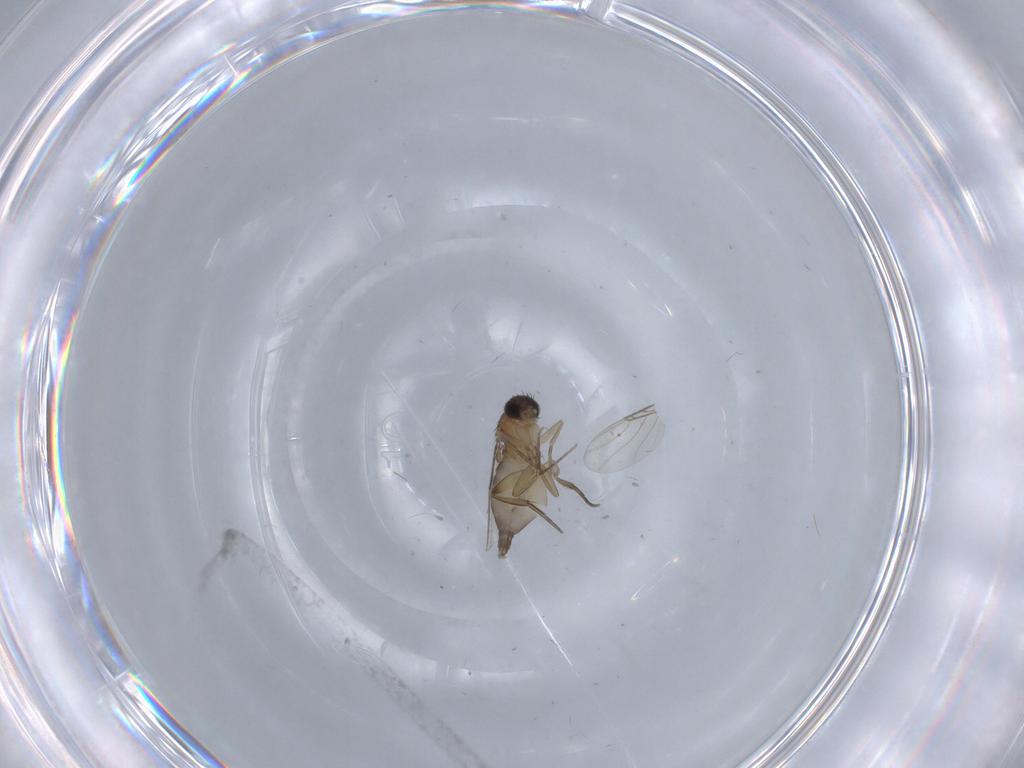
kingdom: Animalia
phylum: Arthropoda
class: Insecta
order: Diptera
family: Phoridae
